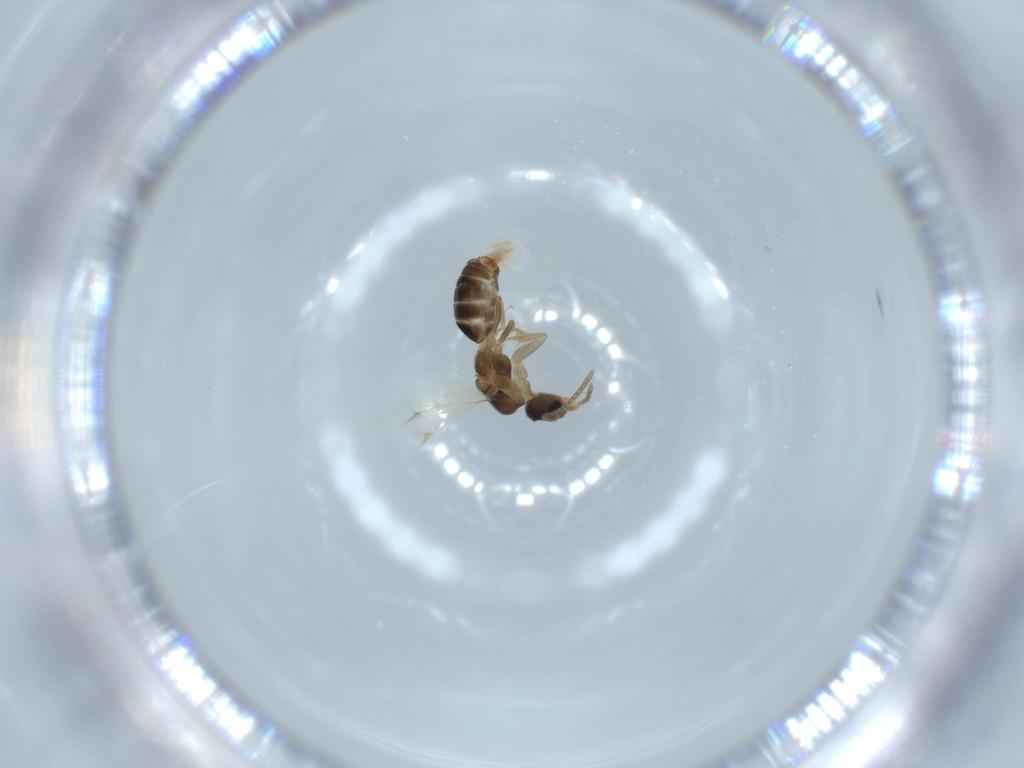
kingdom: Animalia
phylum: Arthropoda
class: Insecta
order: Hymenoptera
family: Formicidae
